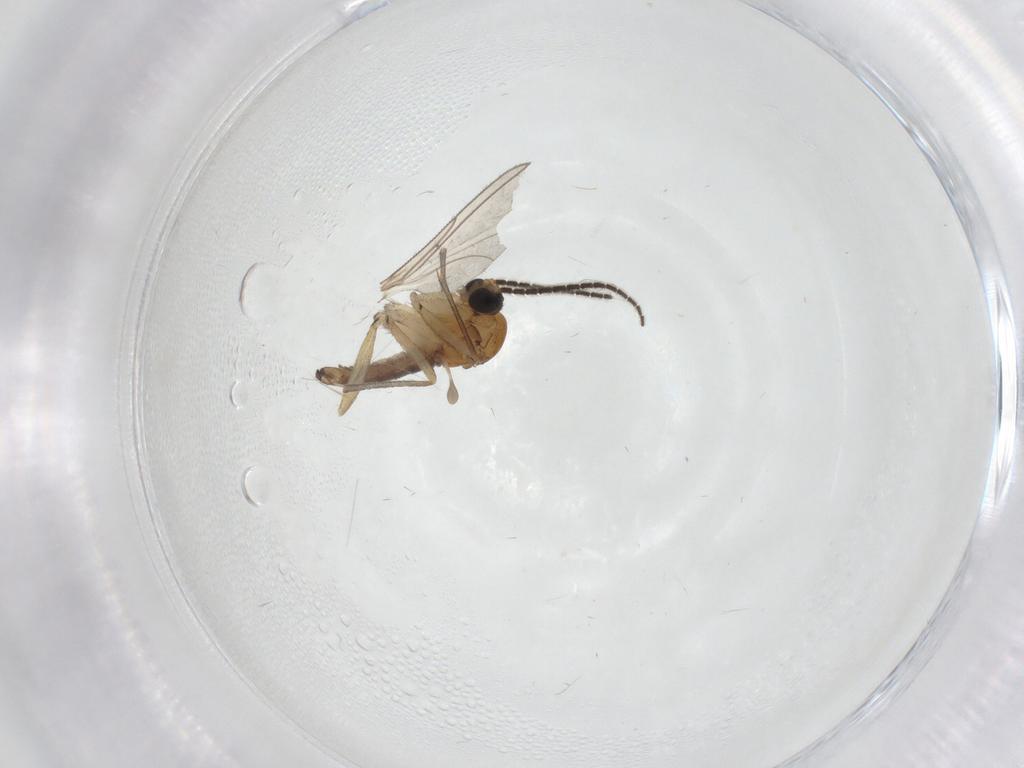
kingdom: Animalia
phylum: Arthropoda
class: Insecta
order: Diptera
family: Sciaridae
